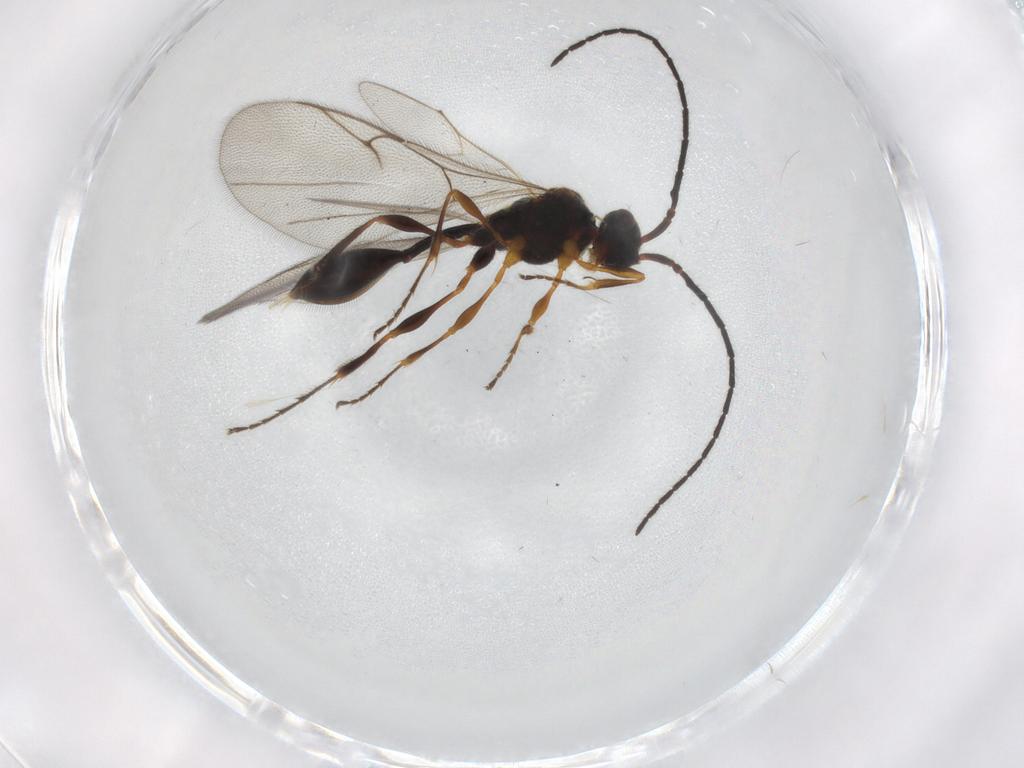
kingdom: Animalia
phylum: Arthropoda
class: Insecta
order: Hymenoptera
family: Diapriidae
